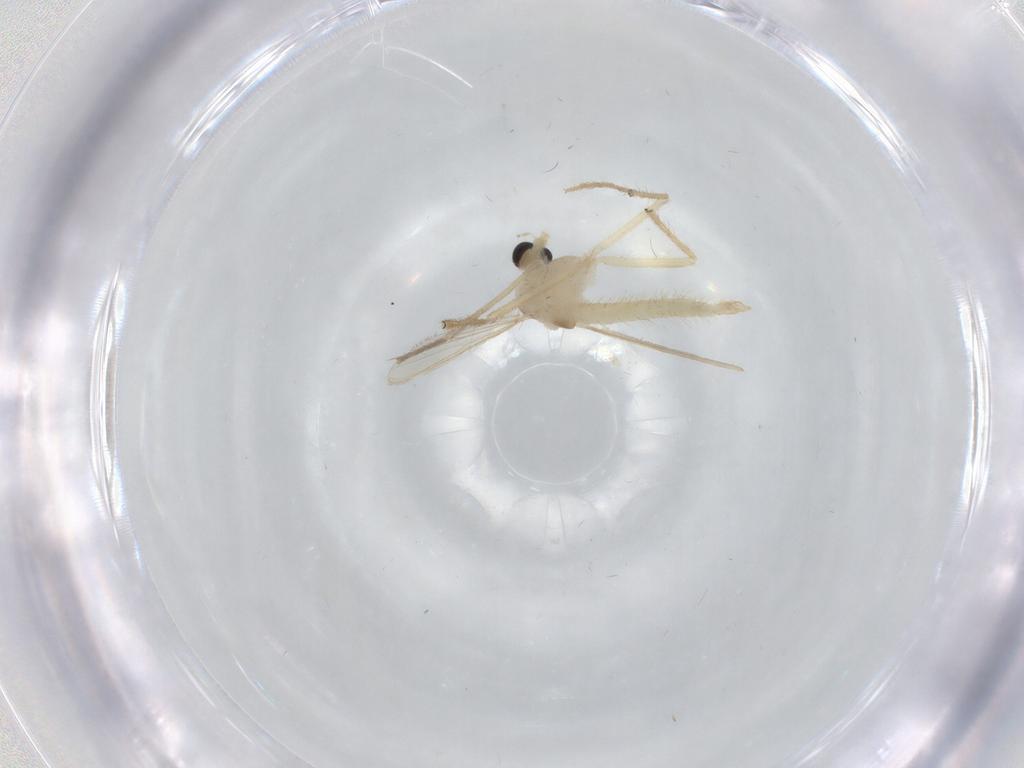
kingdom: Animalia
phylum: Arthropoda
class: Insecta
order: Diptera
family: Chironomidae
